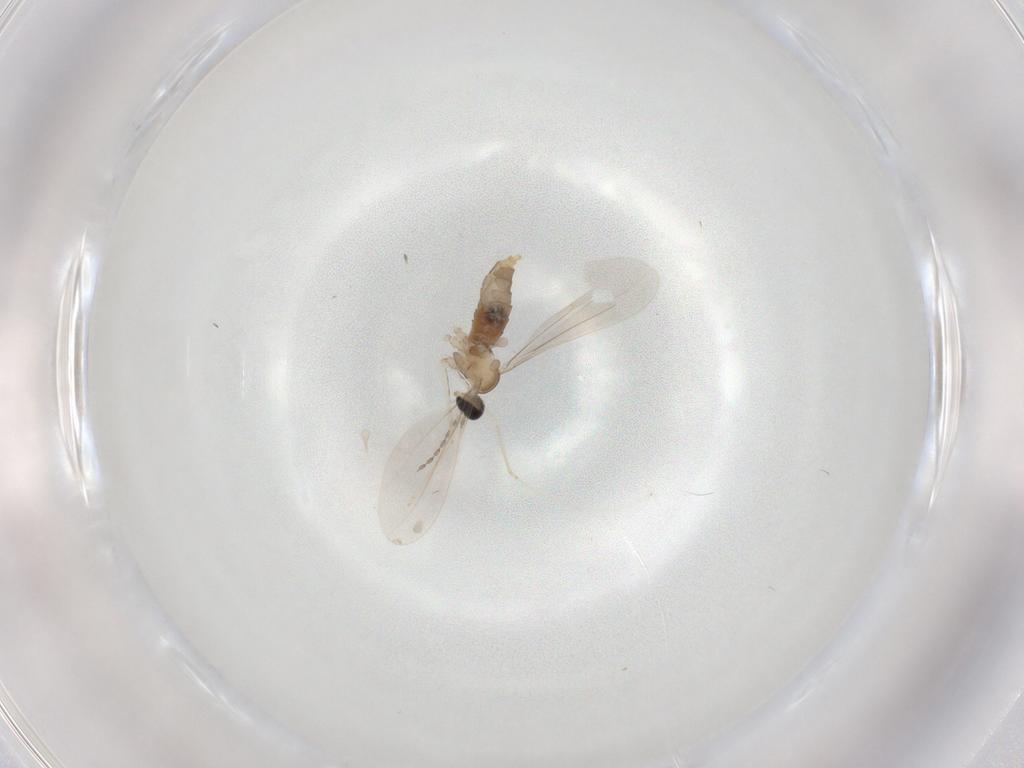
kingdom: Animalia
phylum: Arthropoda
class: Insecta
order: Diptera
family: Cecidomyiidae
